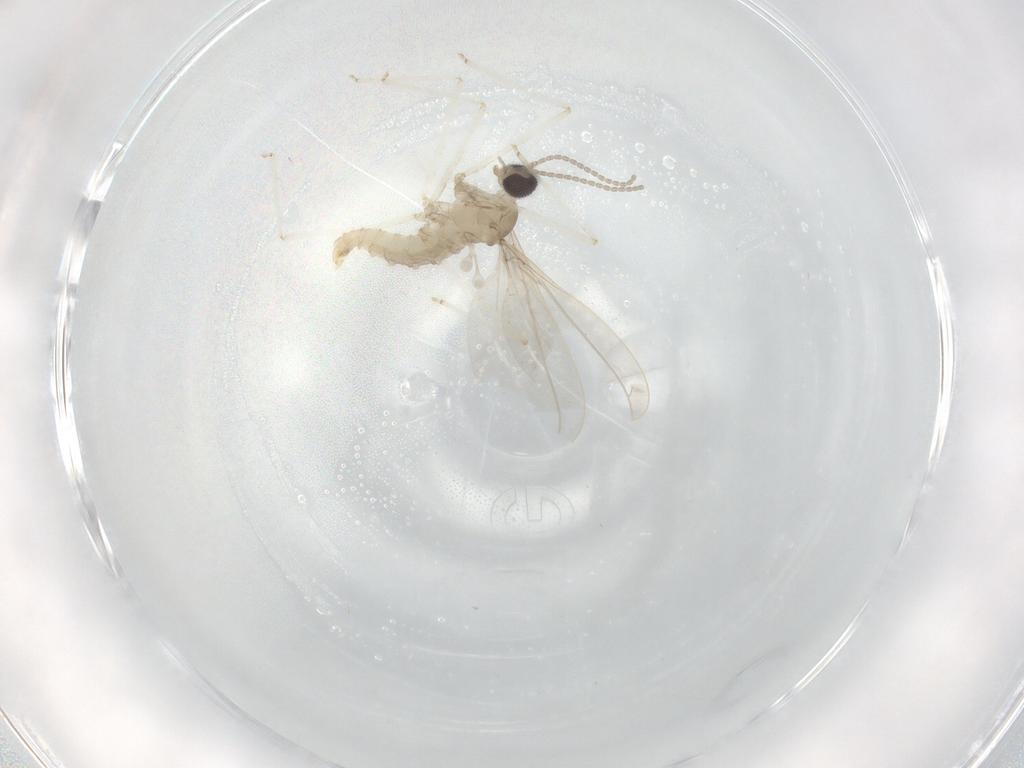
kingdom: Animalia
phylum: Arthropoda
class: Insecta
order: Diptera
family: Cecidomyiidae
